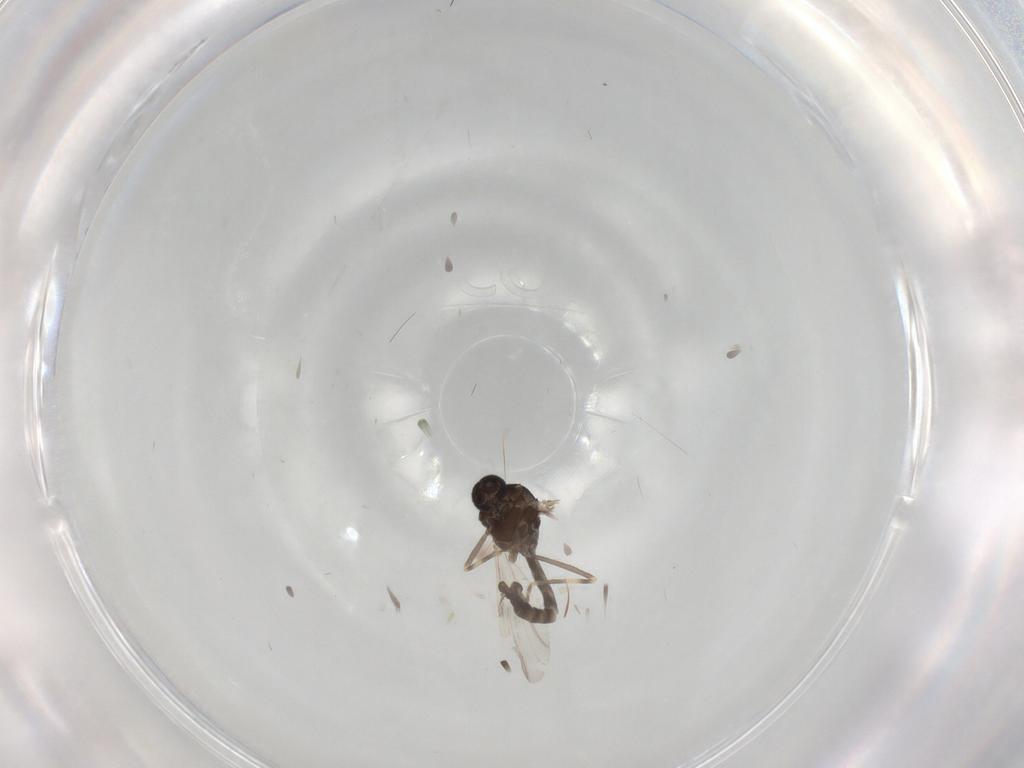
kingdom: Animalia
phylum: Arthropoda
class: Insecta
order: Diptera
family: Ceratopogonidae
